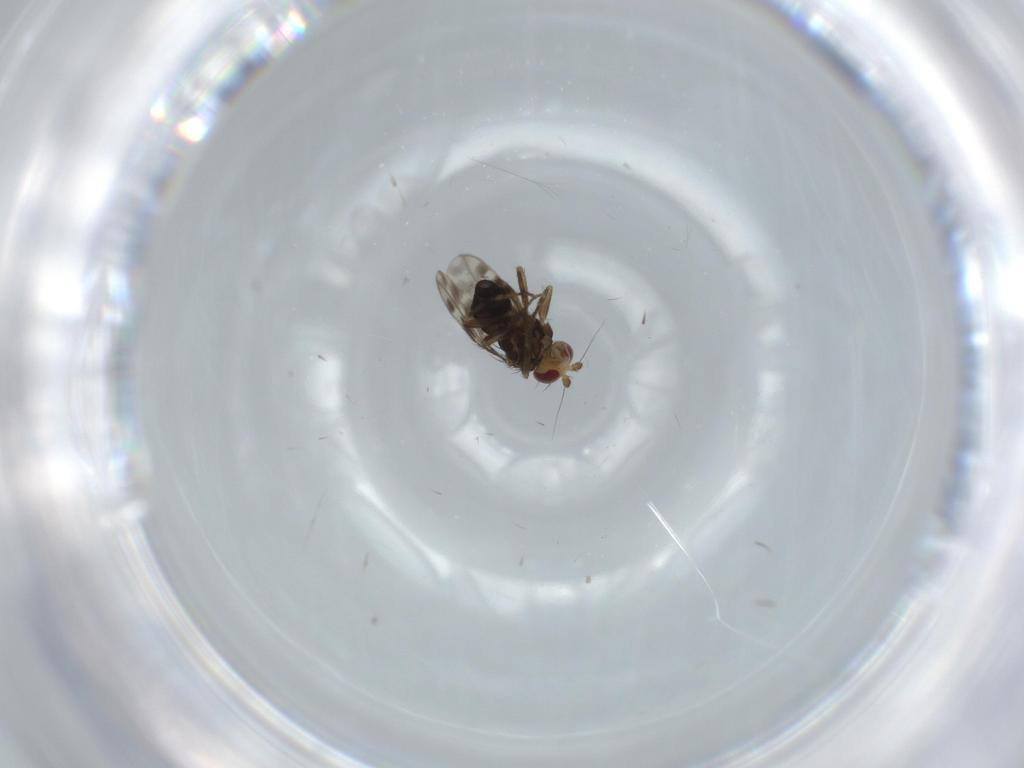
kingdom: Animalia
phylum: Arthropoda
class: Insecta
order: Diptera
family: Sphaeroceridae
